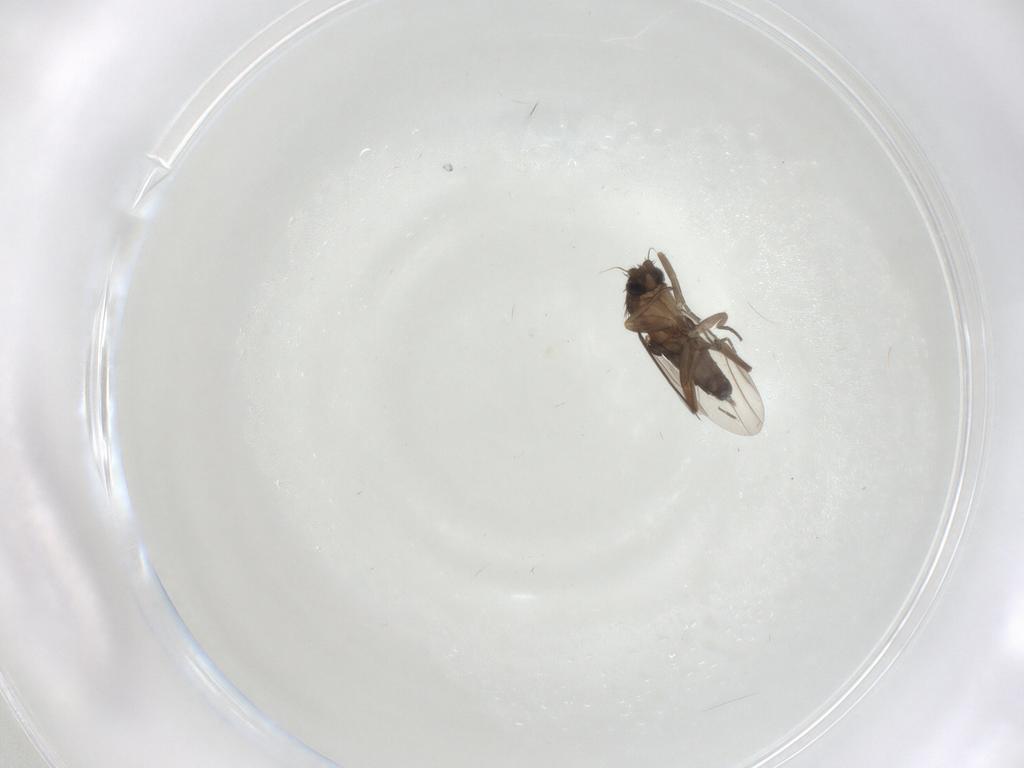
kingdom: Animalia
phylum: Arthropoda
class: Insecta
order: Diptera
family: Phoridae
